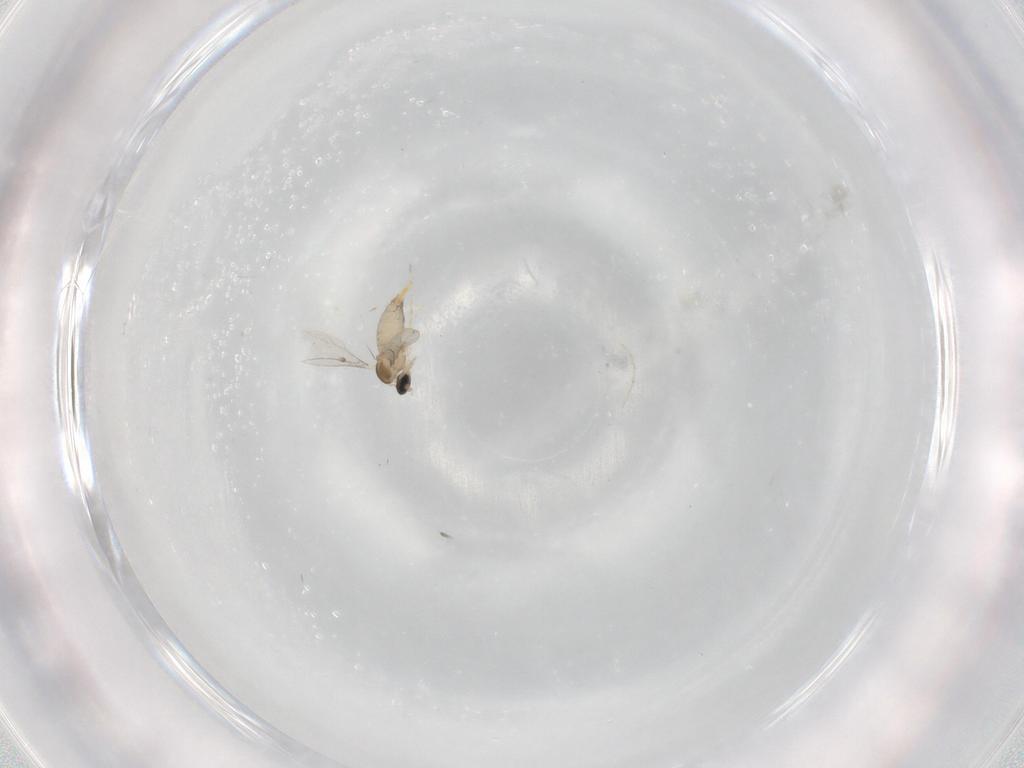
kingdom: Animalia
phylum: Arthropoda
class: Insecta
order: Diptera
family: Cecidomyiidae
